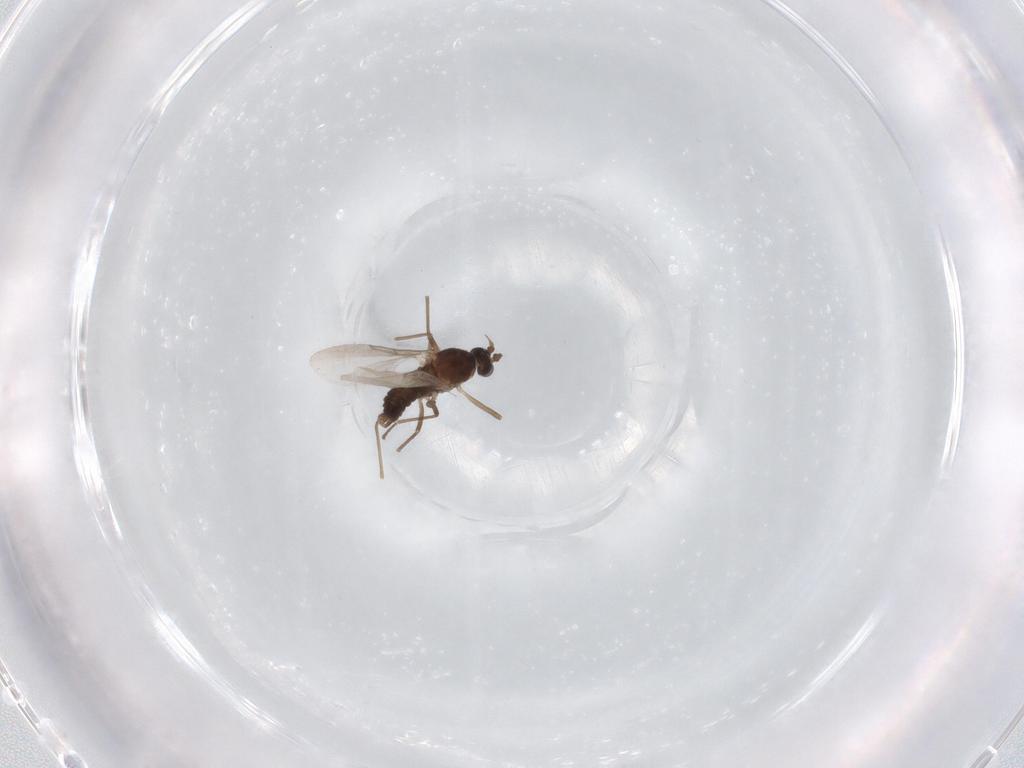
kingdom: Animalia
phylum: Arthropoda
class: Insecta
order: Diptera
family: Cecidomyiidae
